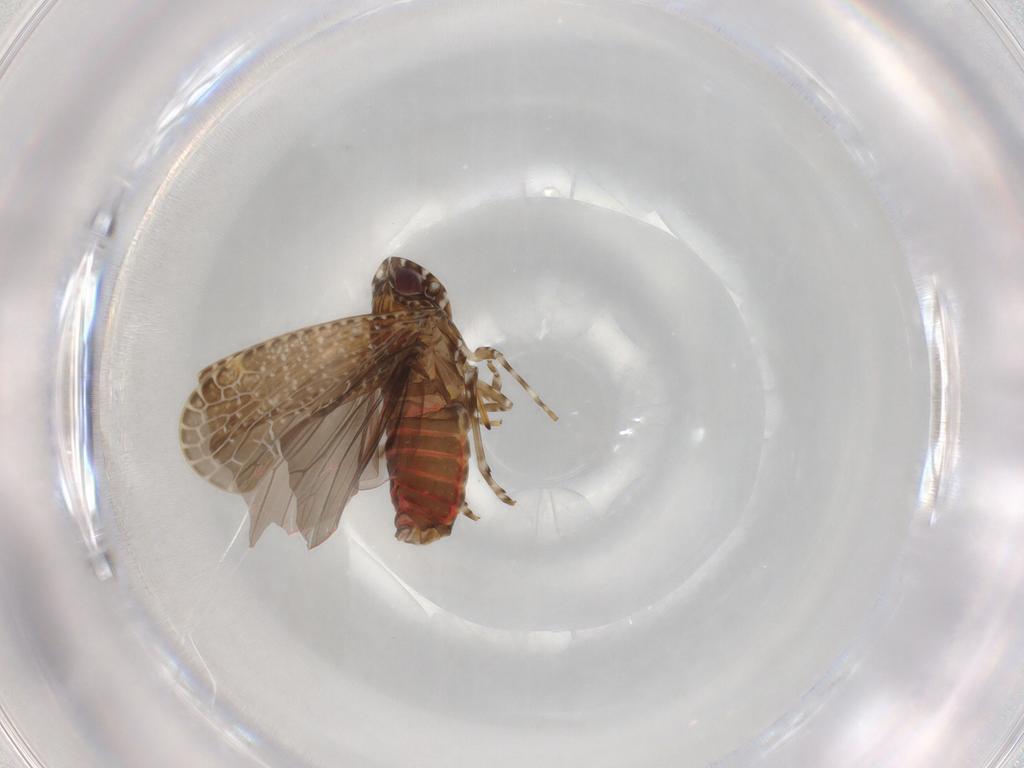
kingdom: Animalia
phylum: Arthropoda
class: Insecta
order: Hemiptera
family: Achilidae
